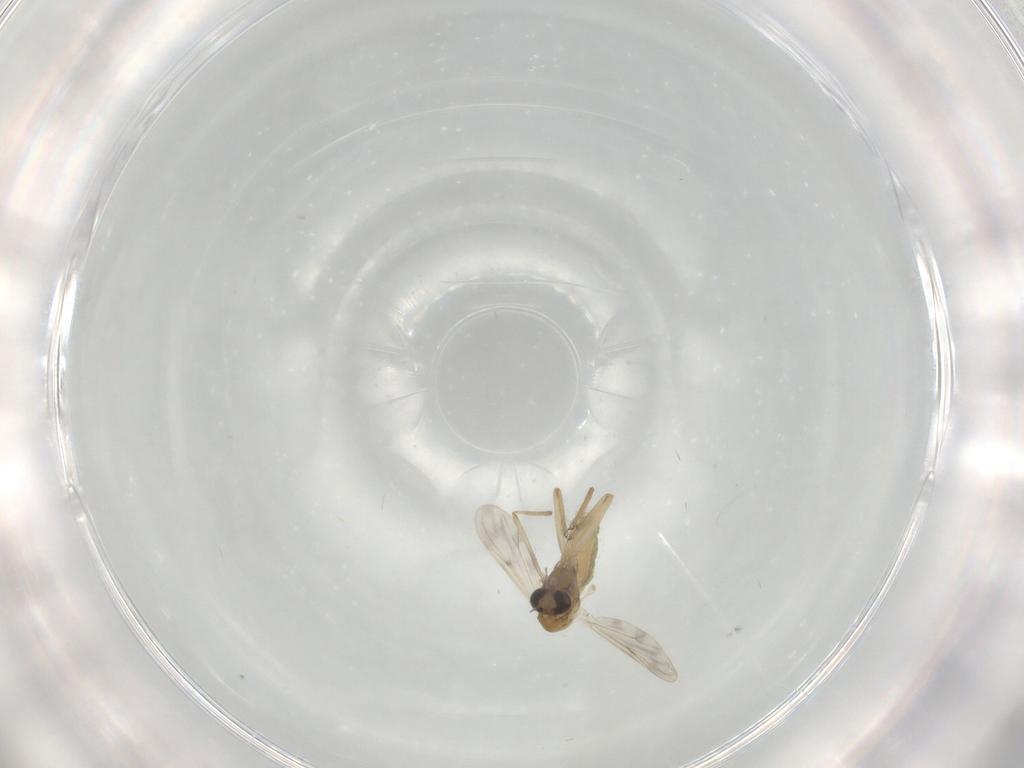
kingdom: Animalia
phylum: Arthropoda
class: Insecta
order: Diptera
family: Chironomidae
